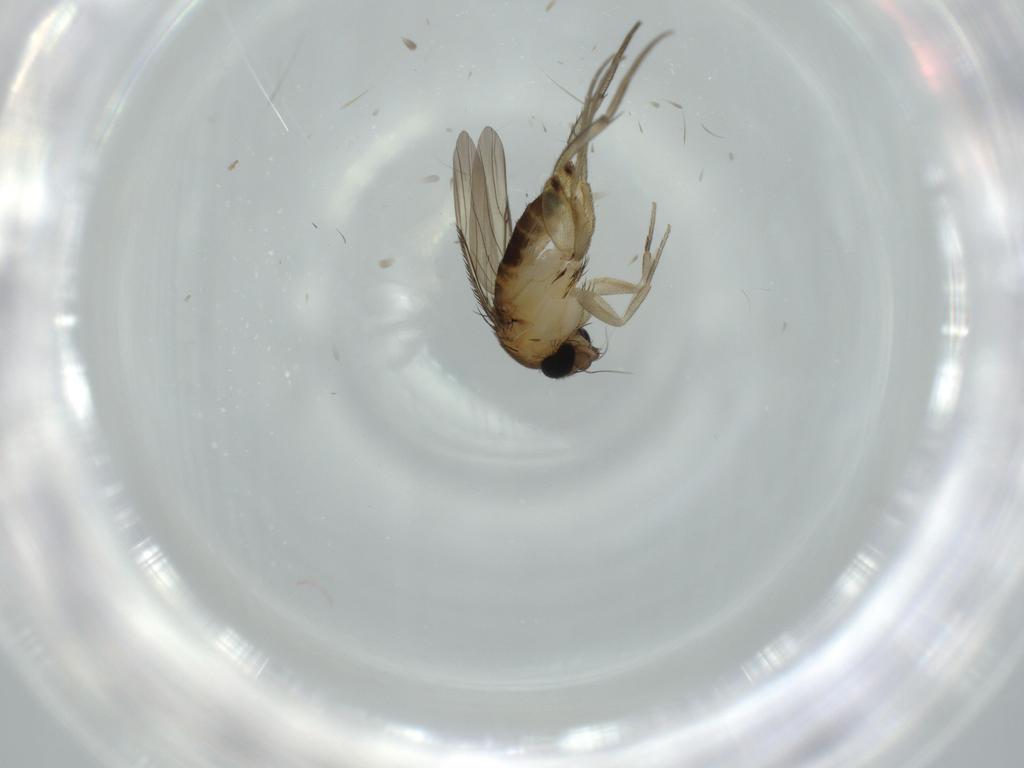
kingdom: Animalia
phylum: Arthropoda
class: Insecta
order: Diptera
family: Phoridae
